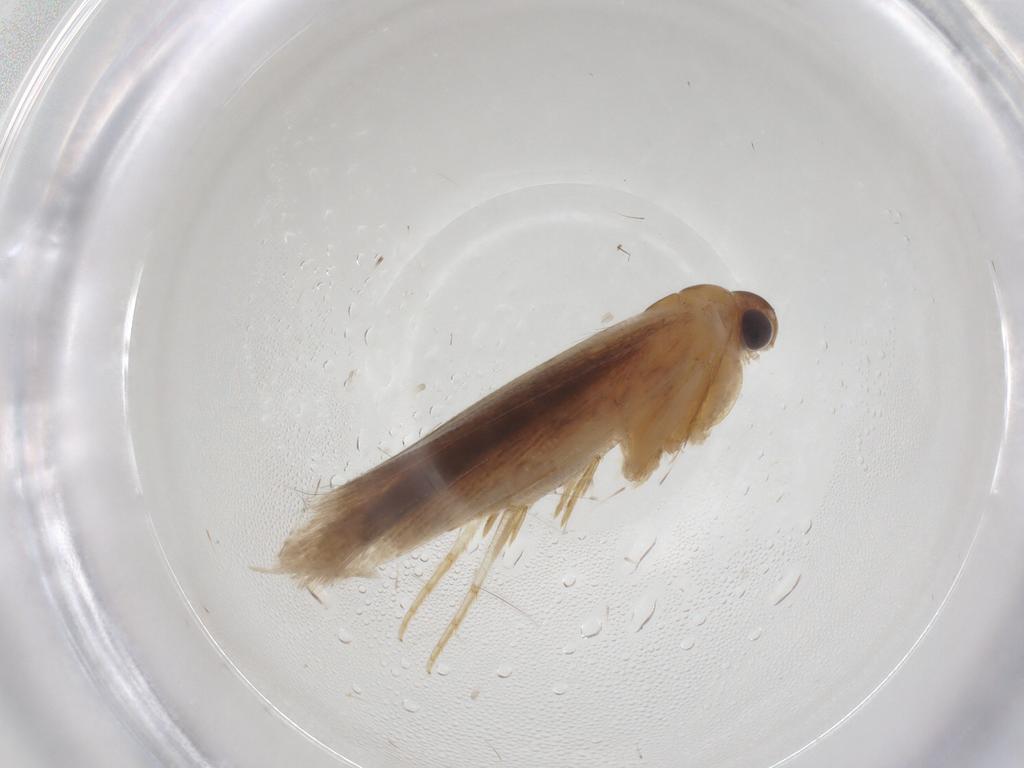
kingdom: Animalia
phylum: Arthropoda
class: Insecta
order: Lepidoptera
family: Gelechiidae
